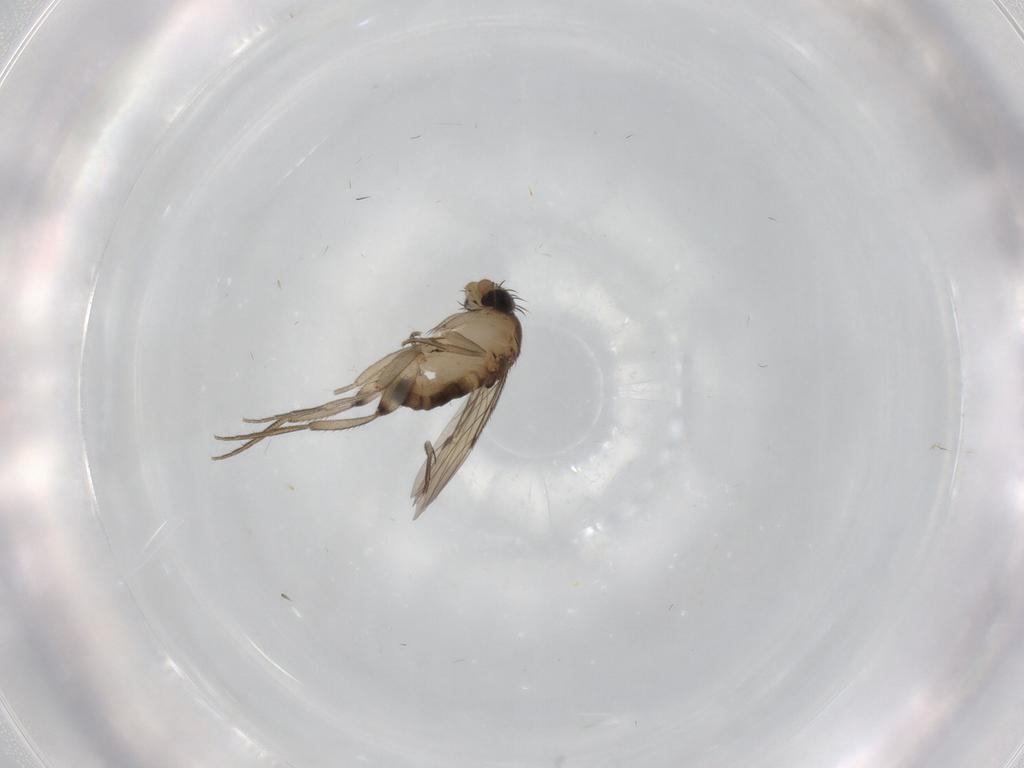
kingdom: Animalia
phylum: Arthropoda
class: Insecta
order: Diptera
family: Phoridae
